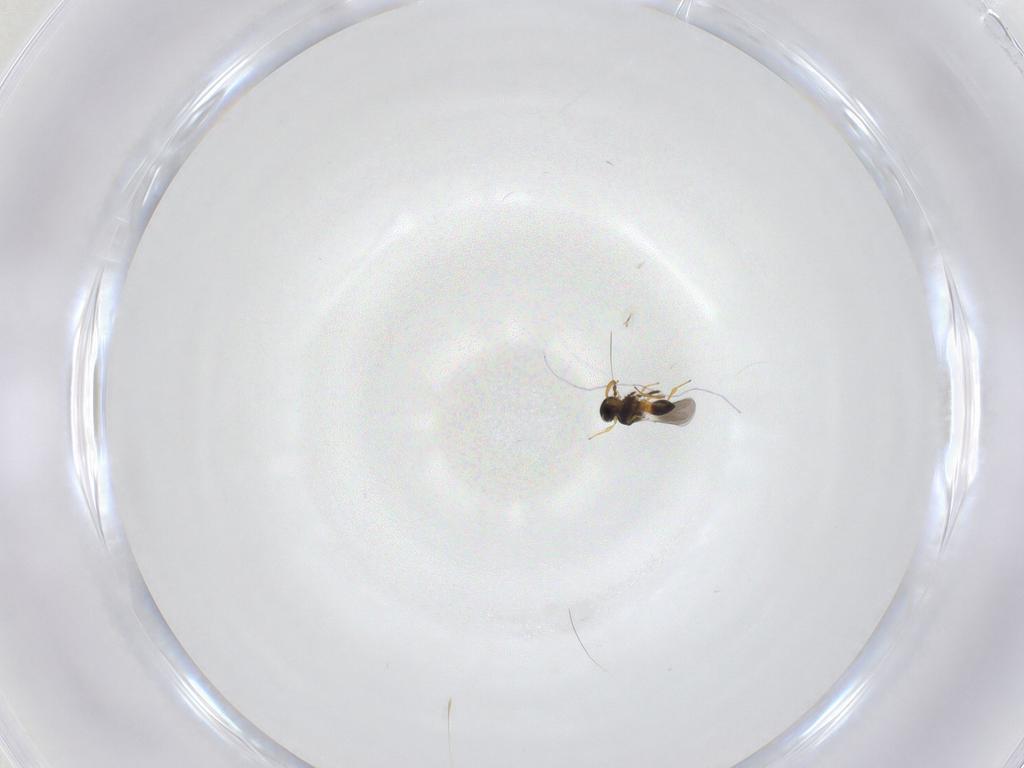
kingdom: Animalia
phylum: Arthropoda
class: Insecta
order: Hymenoptera
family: Platygastridae
